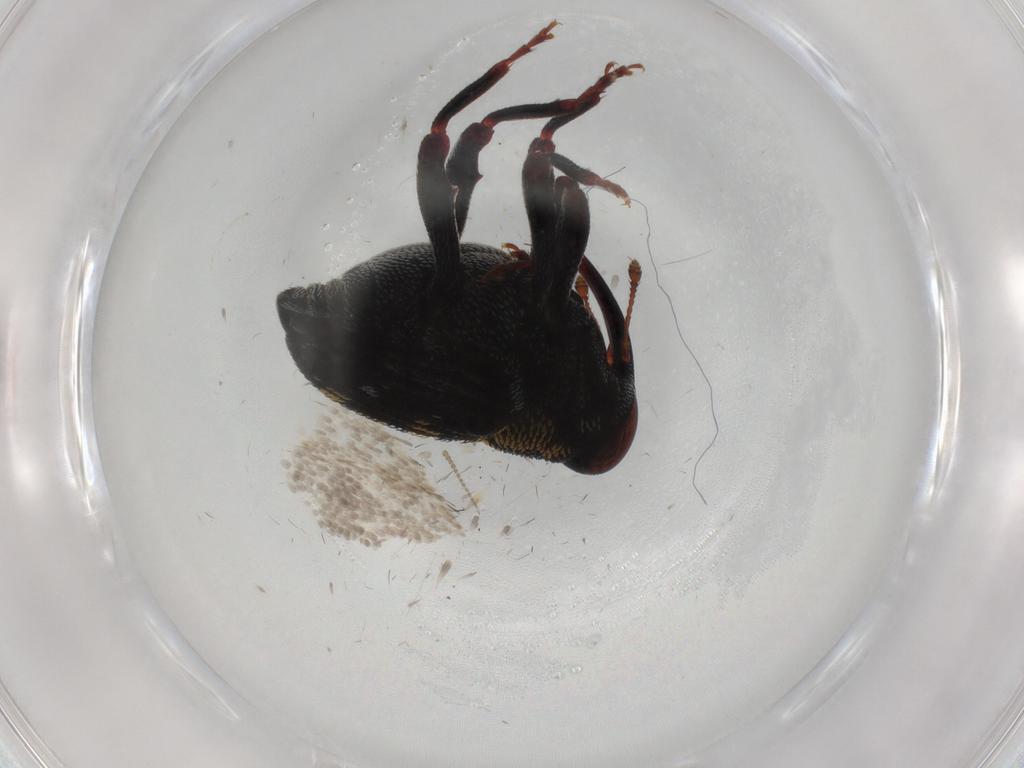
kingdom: Animalia
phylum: Arthropoda
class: Insecta
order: Coleoptera
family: Curculionidae
